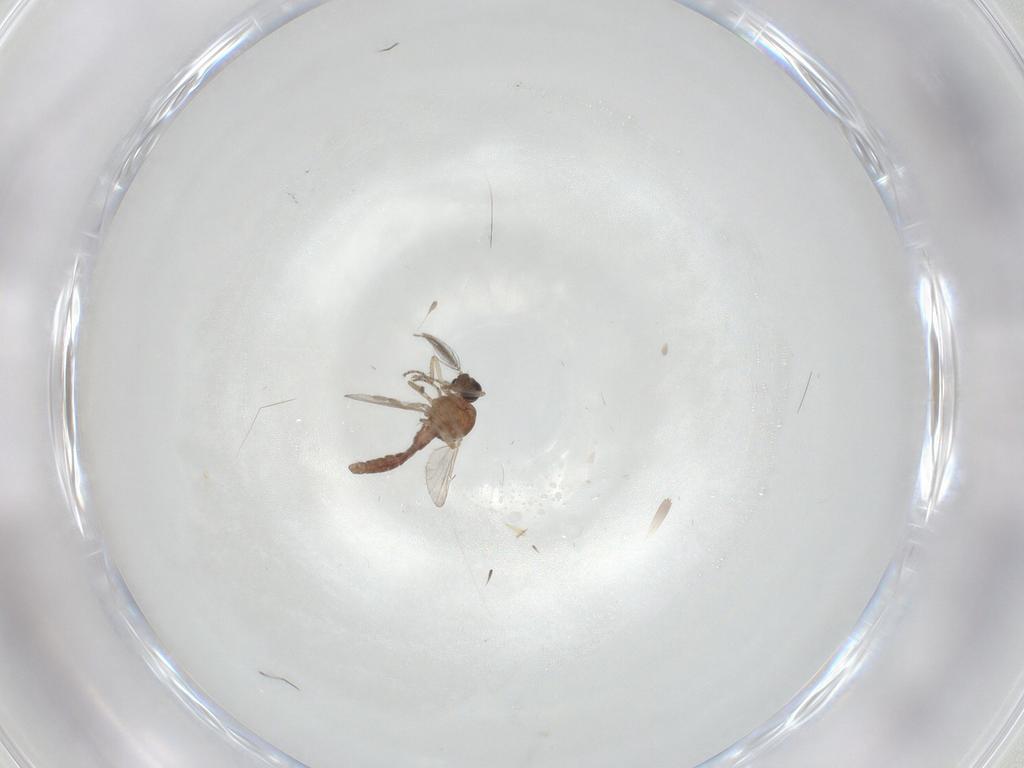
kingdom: Animalia
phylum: Arthropoda
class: Insecta
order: Diptera
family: Ceratopogonidae
